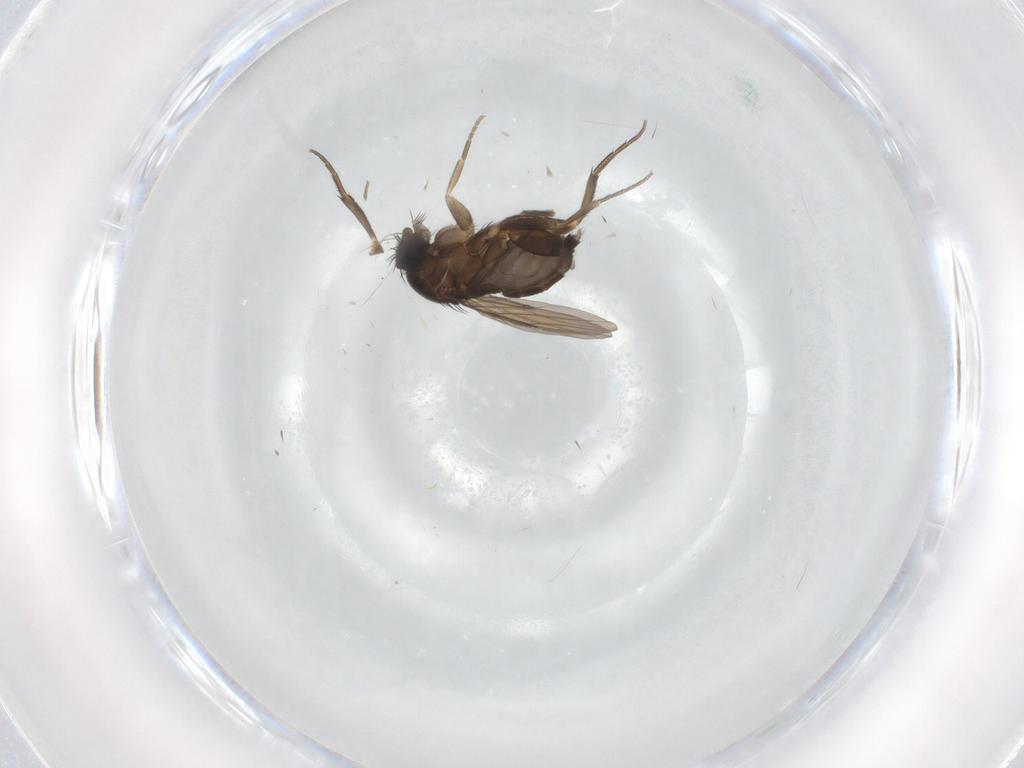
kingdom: Animalia
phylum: Arthropoda
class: Insecta
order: Diptera
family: Phoridae
